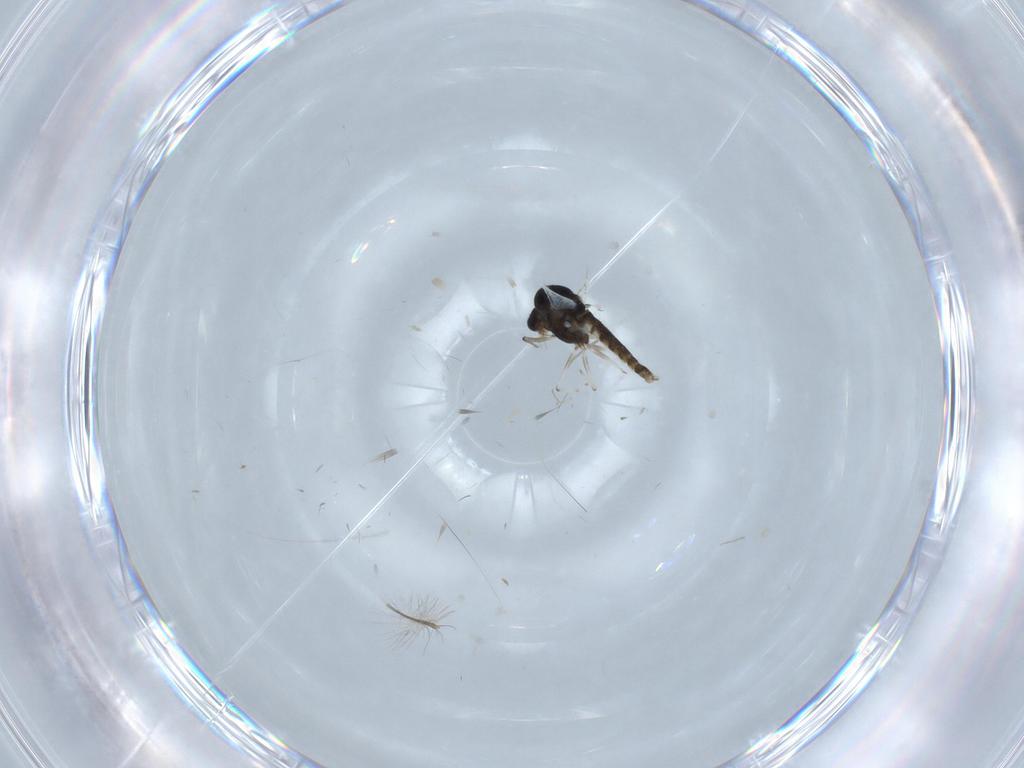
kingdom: Animalia
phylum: Arthropoda
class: Insecta
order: Diptera
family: Chironomidae
